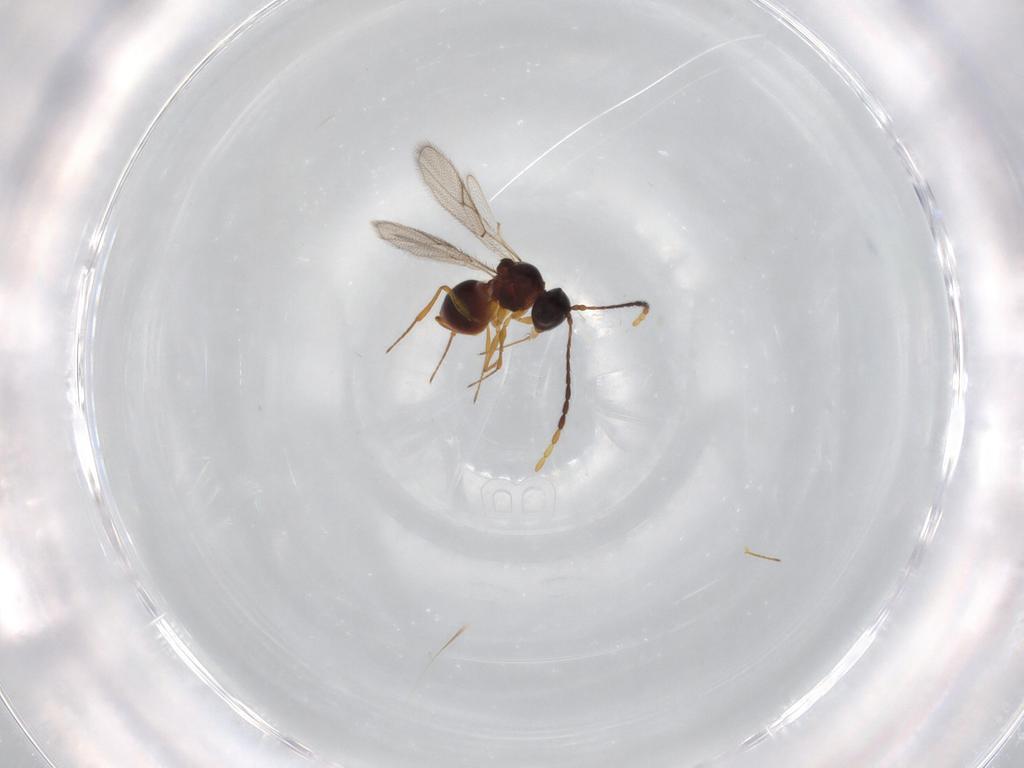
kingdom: Animalia
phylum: Arthropoda
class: Insecta
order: Hymenoptera
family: Figitidae
